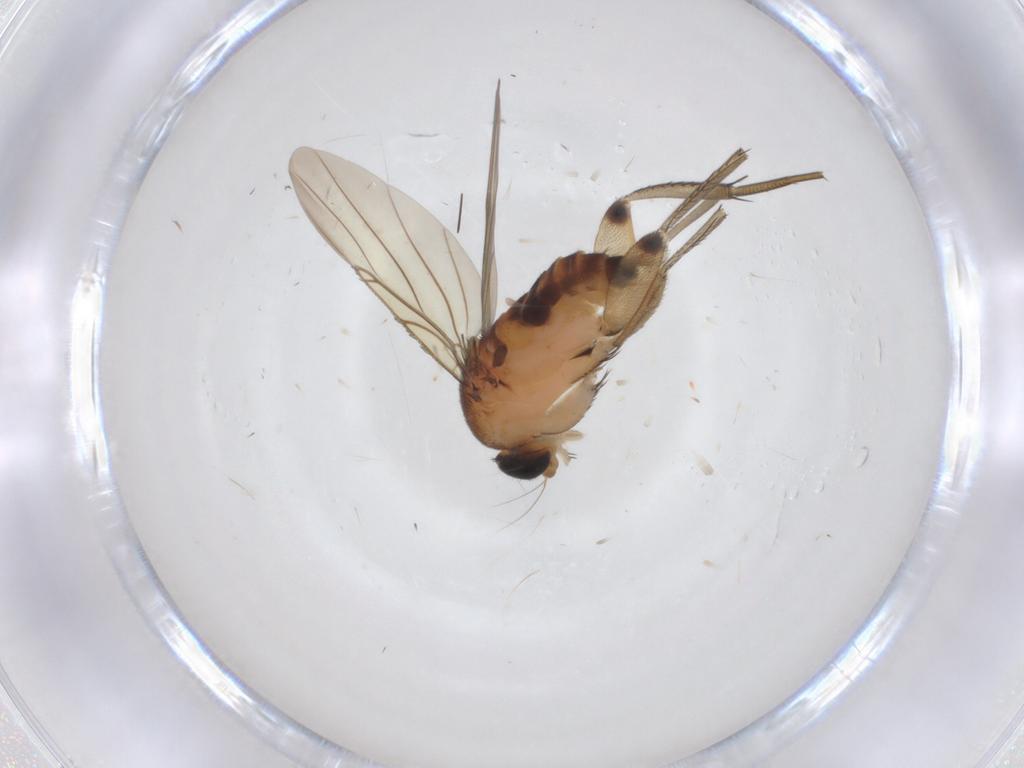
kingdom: Animalia
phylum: Arthropoda
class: Insecta
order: Diptera
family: Phoridae
